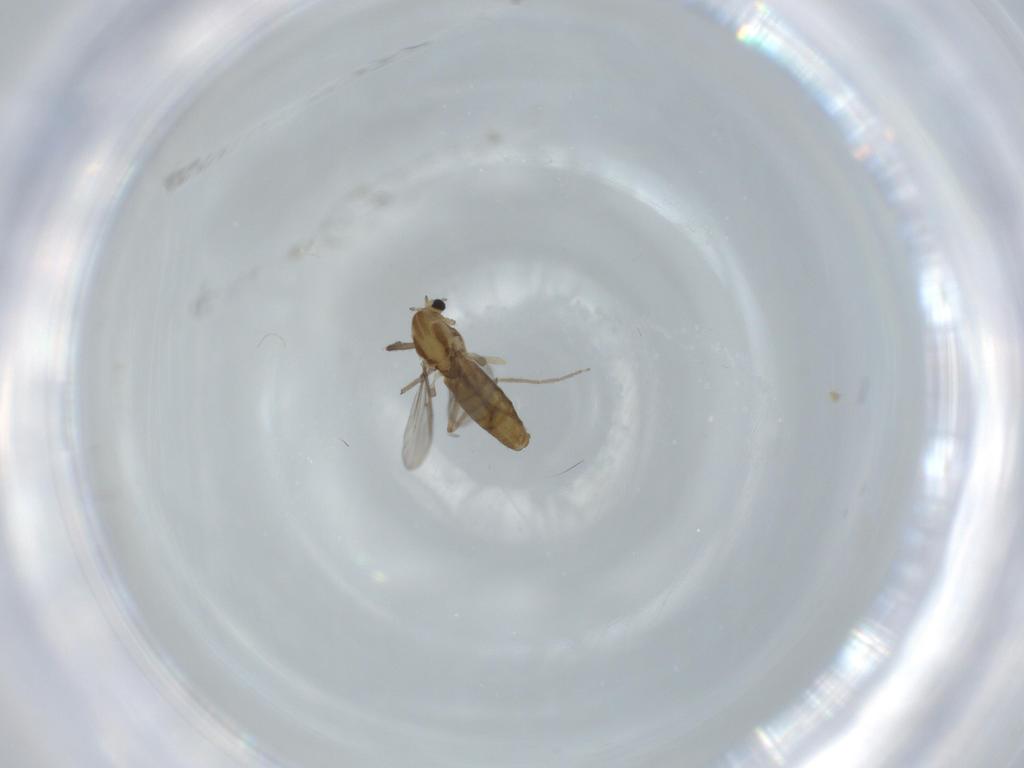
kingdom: Animalia
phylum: Arthropoda
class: Insecta
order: Diptera
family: Chironomidae
